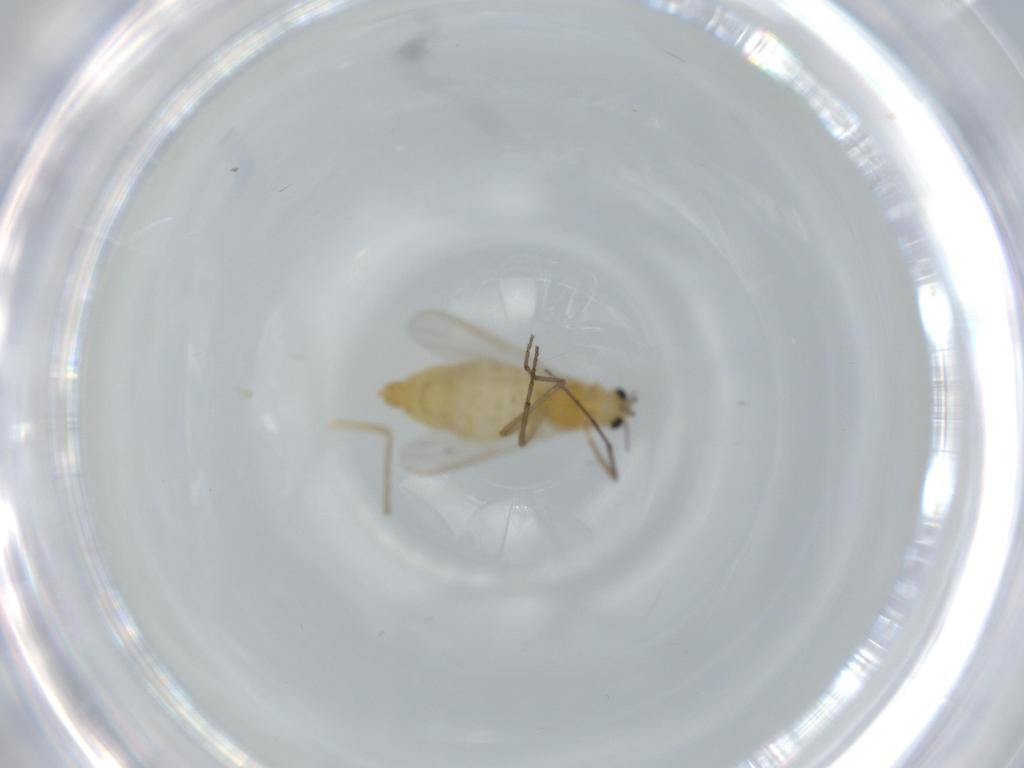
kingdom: Animalia
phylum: Arthropoda
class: Insecta
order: Diptera
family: Chironomidae
